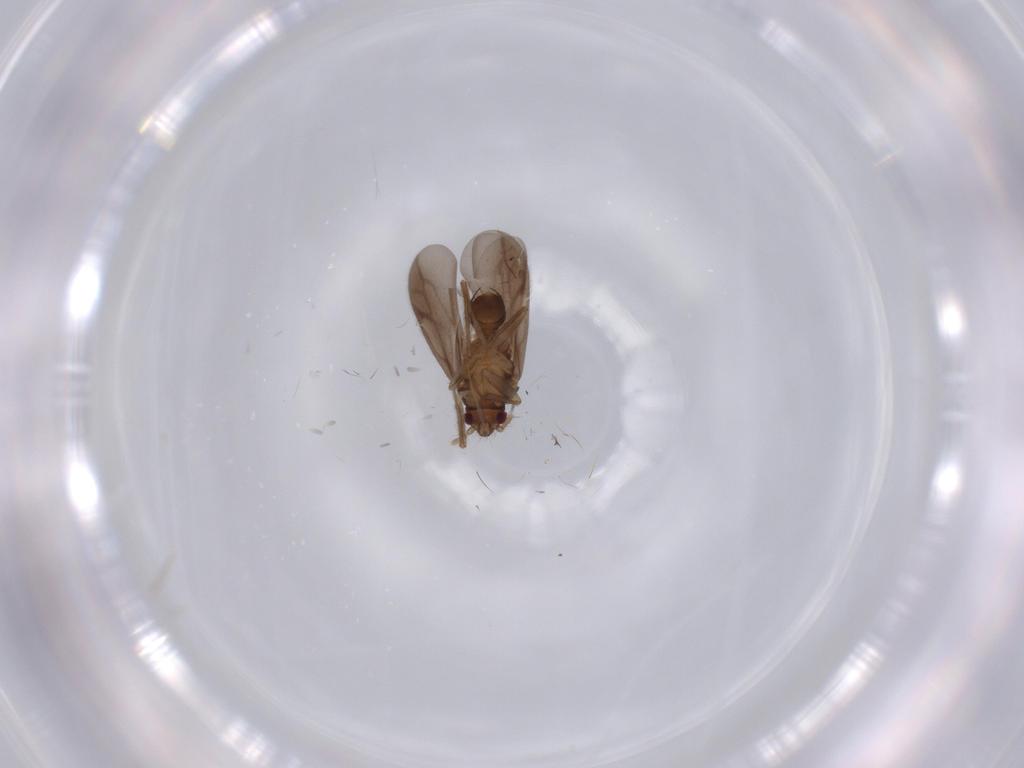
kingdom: Animalia
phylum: Arthropoda
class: Insecta
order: Hemiptera
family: Ceratocombidae
